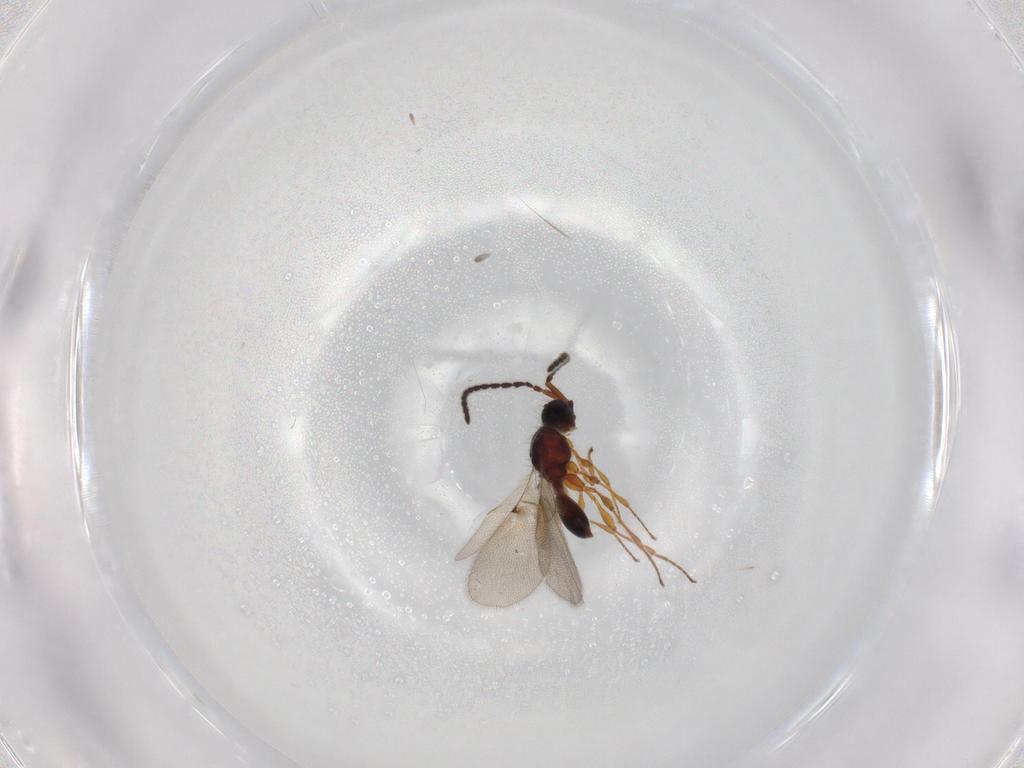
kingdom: Animalia
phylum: Arthropoda
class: Insecta
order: Hymenoptera
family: Diapriidae
